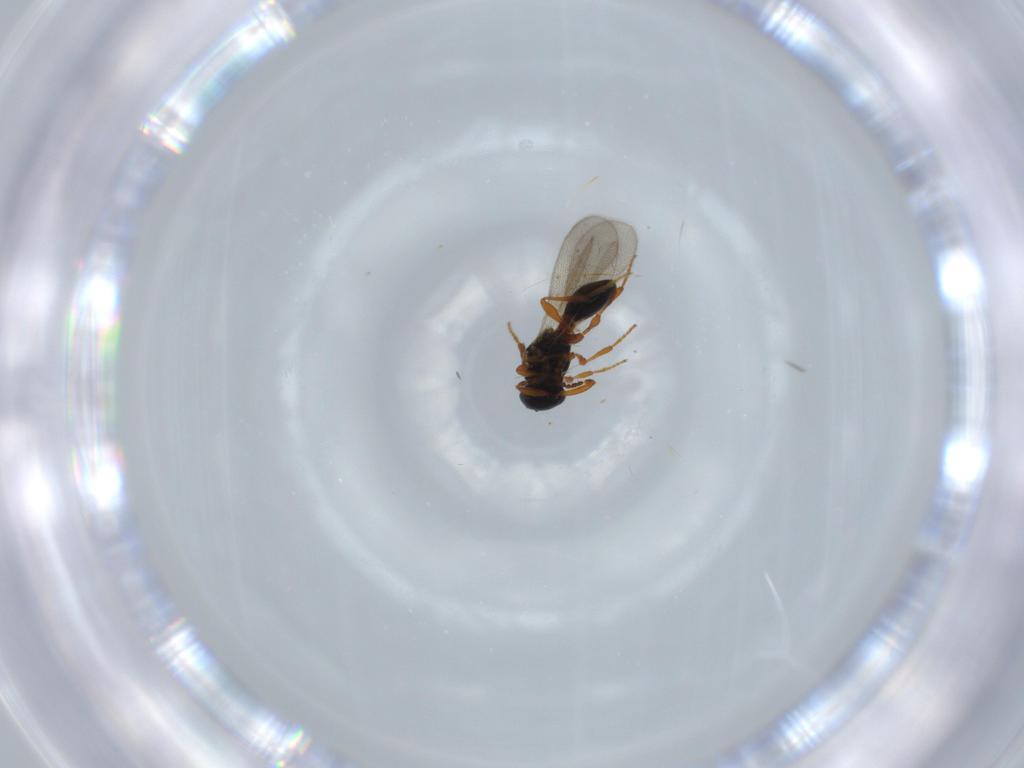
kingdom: Animalia
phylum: Arthropoda
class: Insecta
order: Hymenoptera
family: Platygastridae
